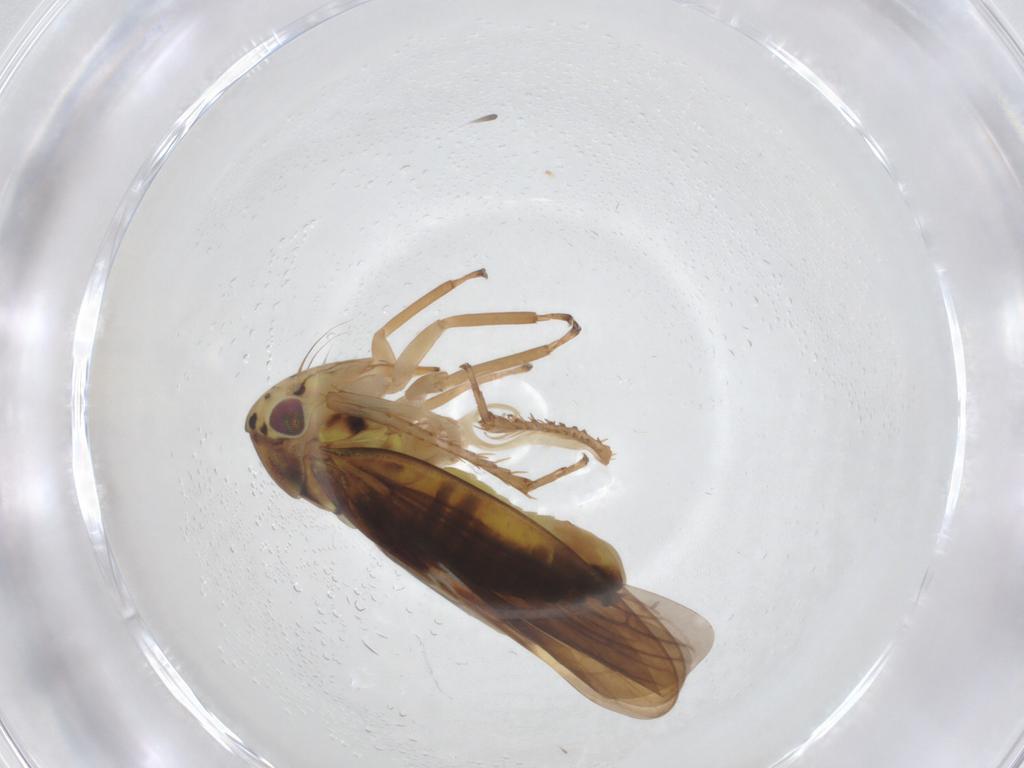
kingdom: Animalia
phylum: Arthropoda
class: Insecta
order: Hemiptera
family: Cicadellidae
